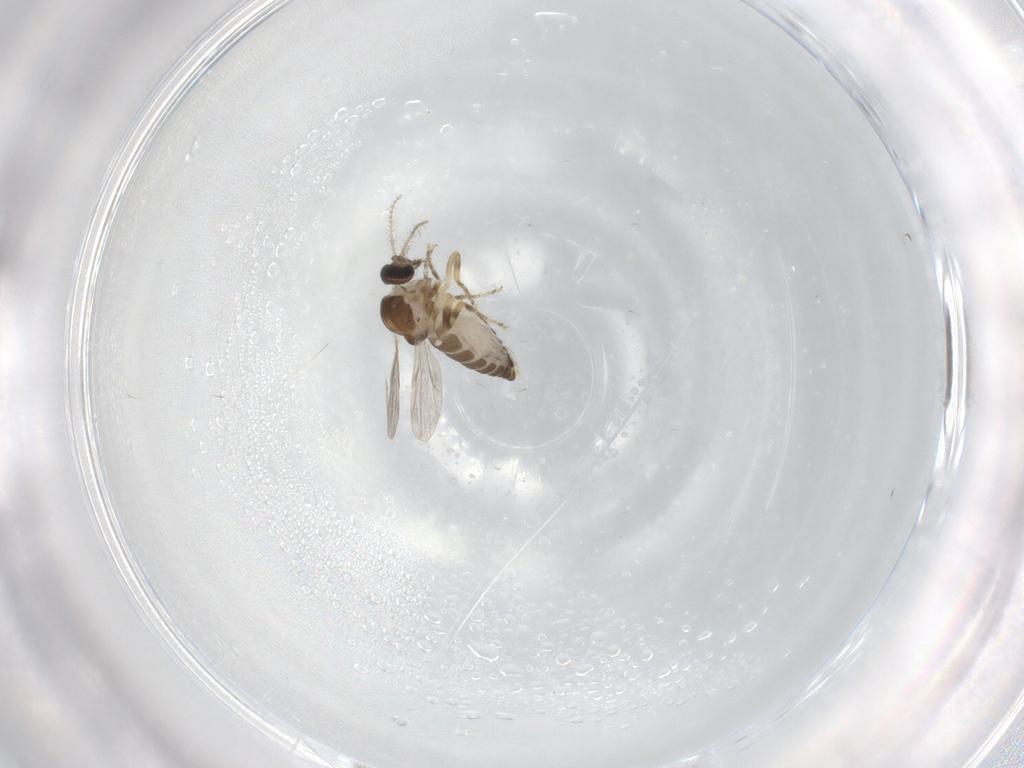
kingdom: Animalia
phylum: Arthropoda
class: Insecta
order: Diptera
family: Ceratopogonidae
